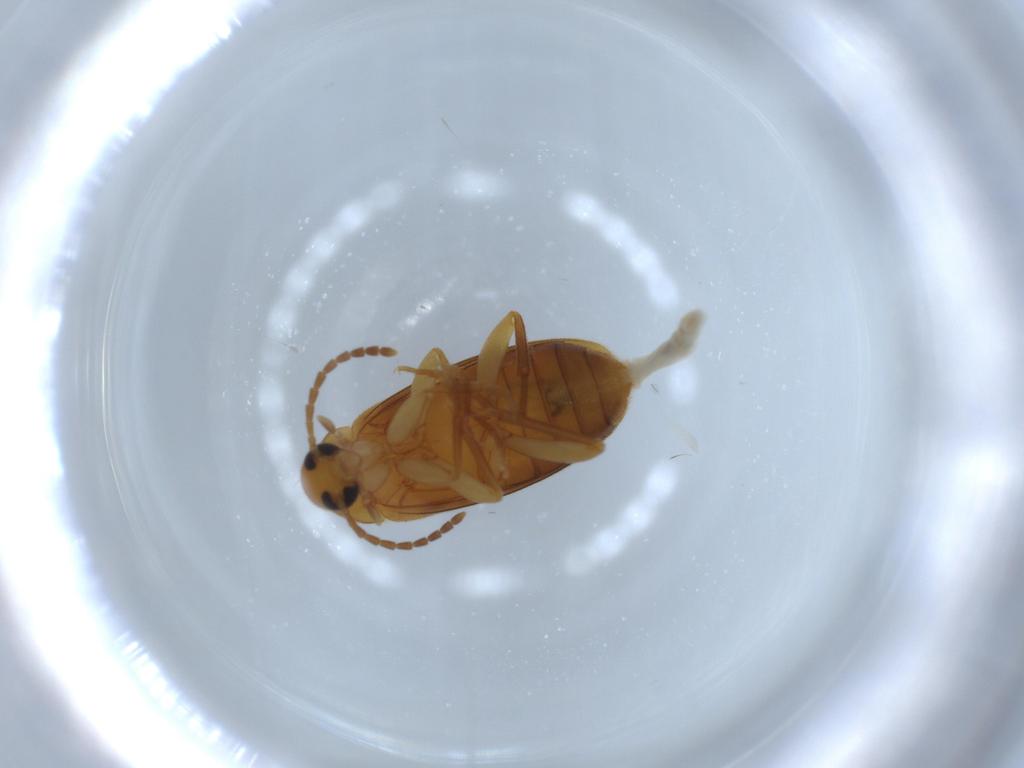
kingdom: Animalia
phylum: Arthropoda
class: Insecta
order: Coleoptera
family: Scraptiidae
